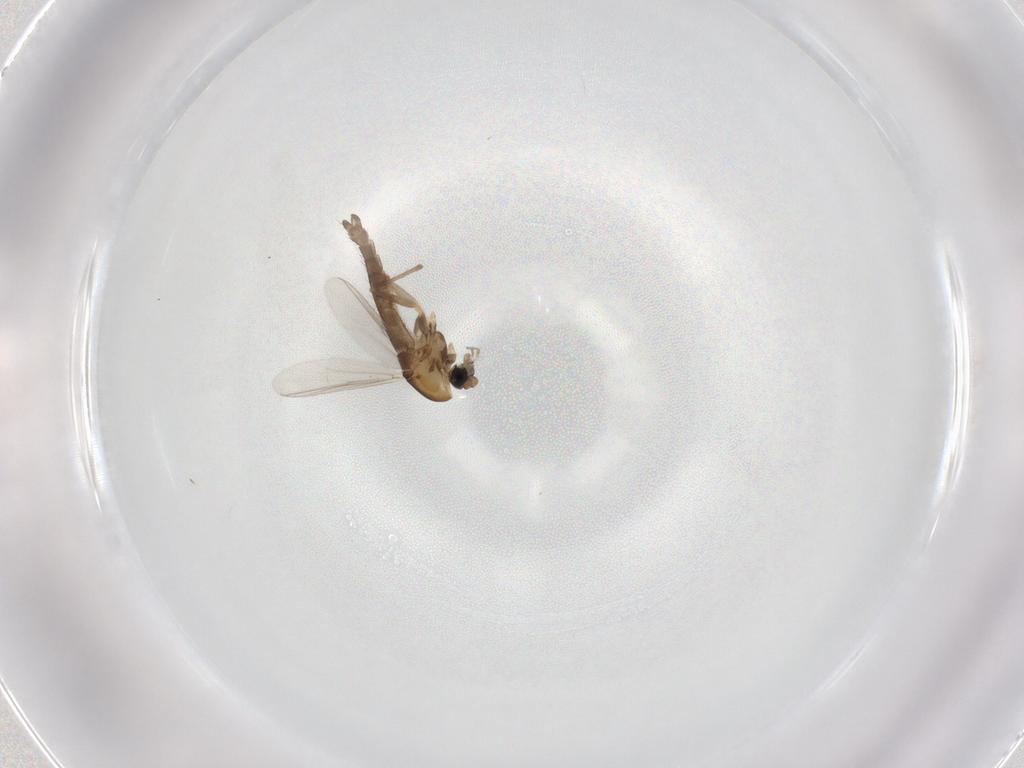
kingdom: Animalia
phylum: Arthropoda
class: Insecta
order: Diptera
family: Chironomidae
